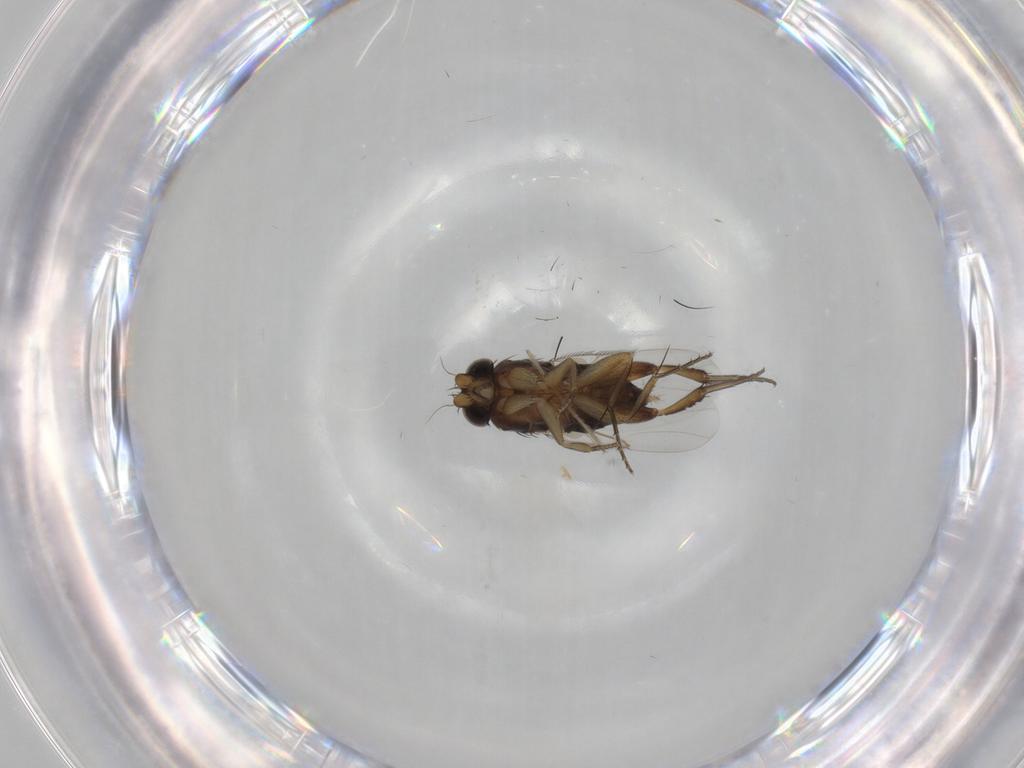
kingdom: Animalia
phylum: Arthropoda
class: Insecta
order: Diptera
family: Phoridae
